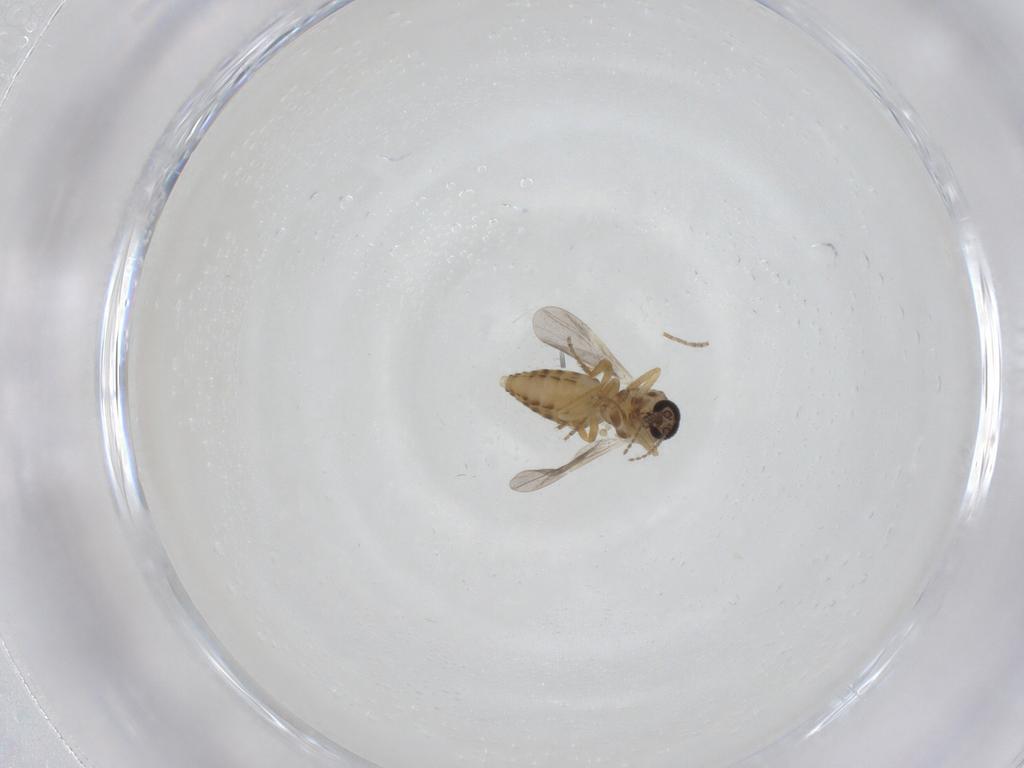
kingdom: Animalia
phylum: Arthropoda
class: Insecta
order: Diptera
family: Ceratopogonidae
